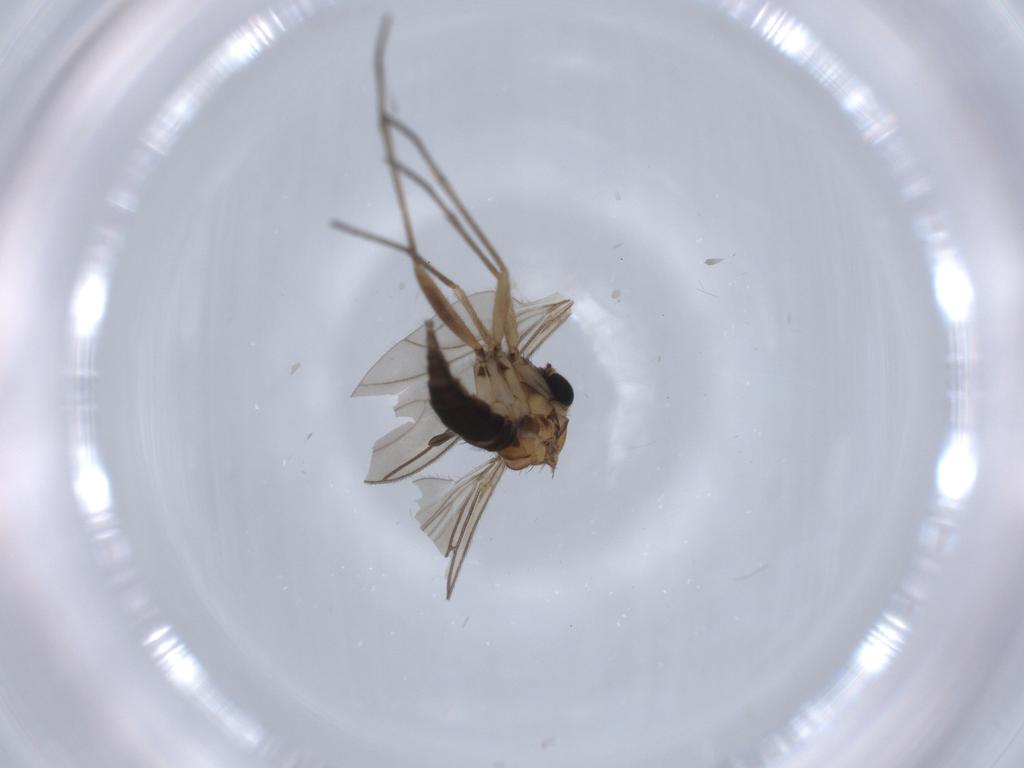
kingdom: Animalia
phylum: Arthropoda
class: Insecta
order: Diptera
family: Sciaridae
